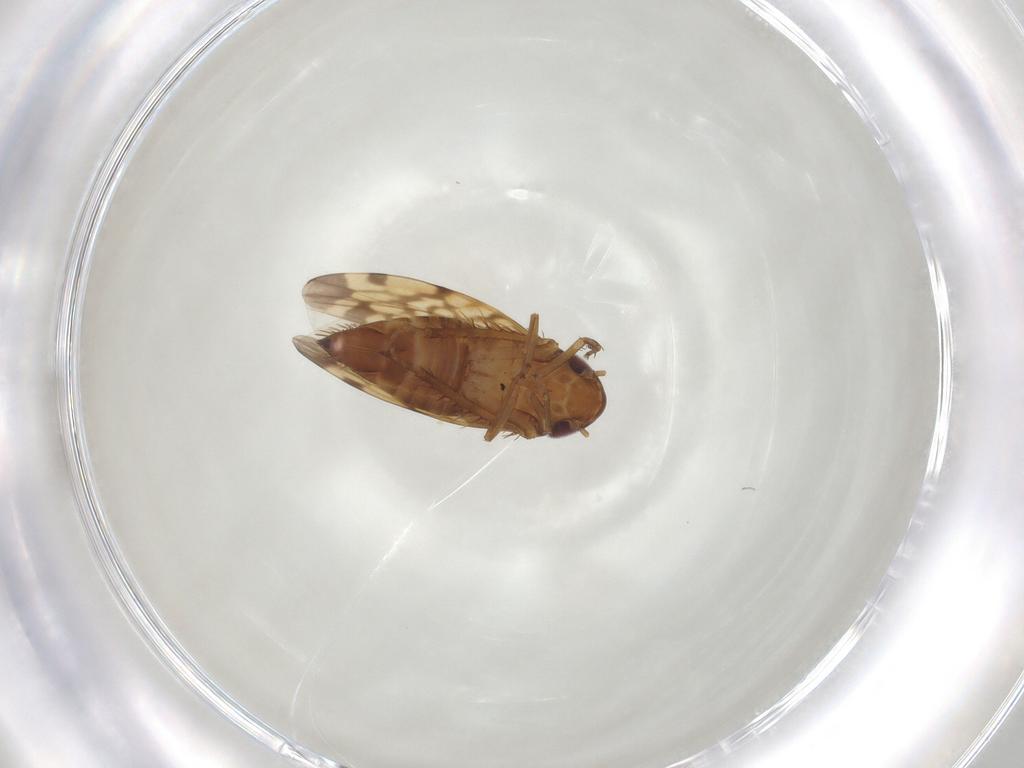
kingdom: Animalia
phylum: Arthropoda
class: Insecta
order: Hemiptera
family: Cicadellidae
